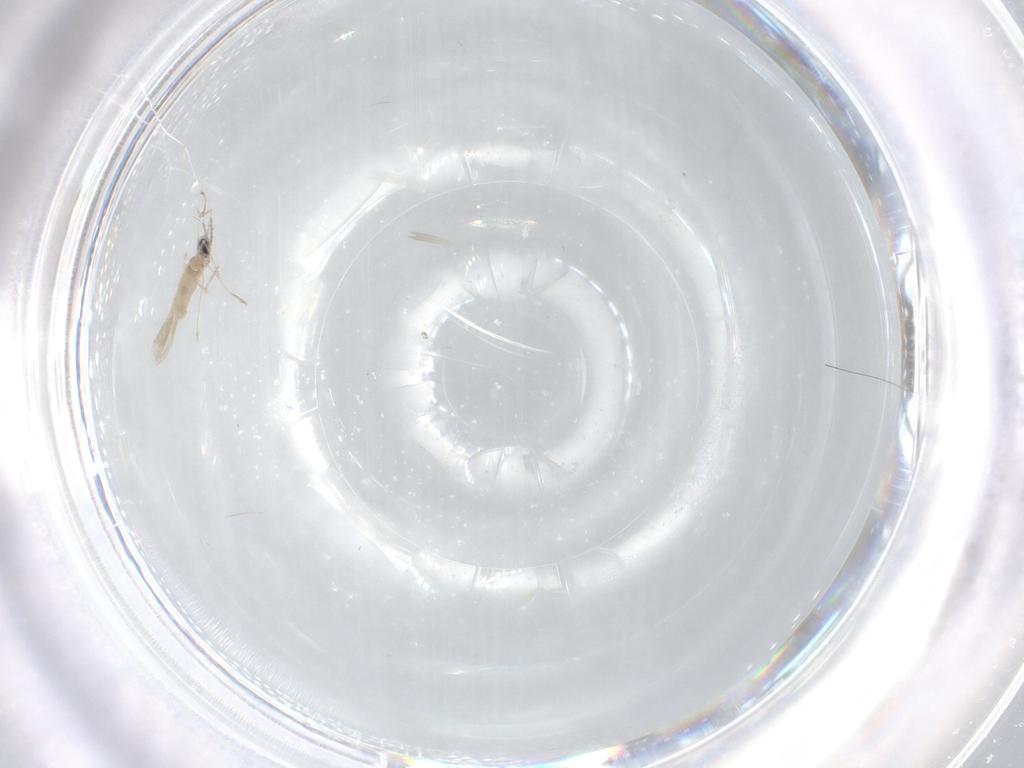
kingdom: Animalia
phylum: Arthropoda
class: Insecta
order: Diptera
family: Cecidomyiidae
